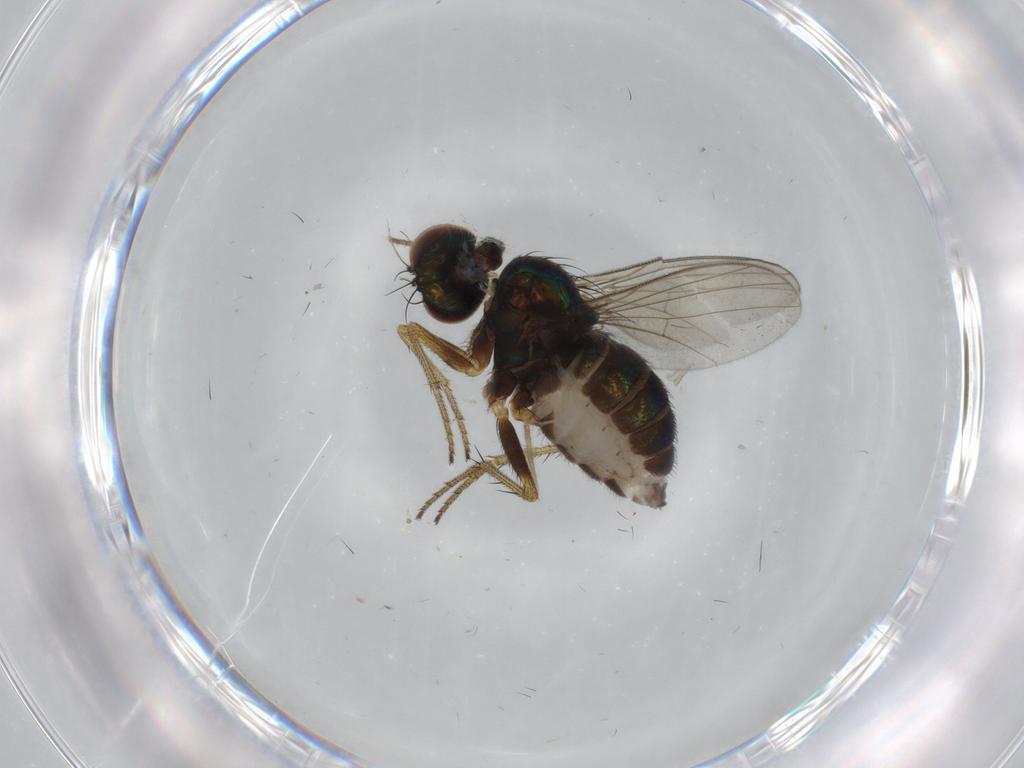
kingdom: Animalia
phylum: Arthropoda
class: Insecta
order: Diptera
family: Chironomidae
